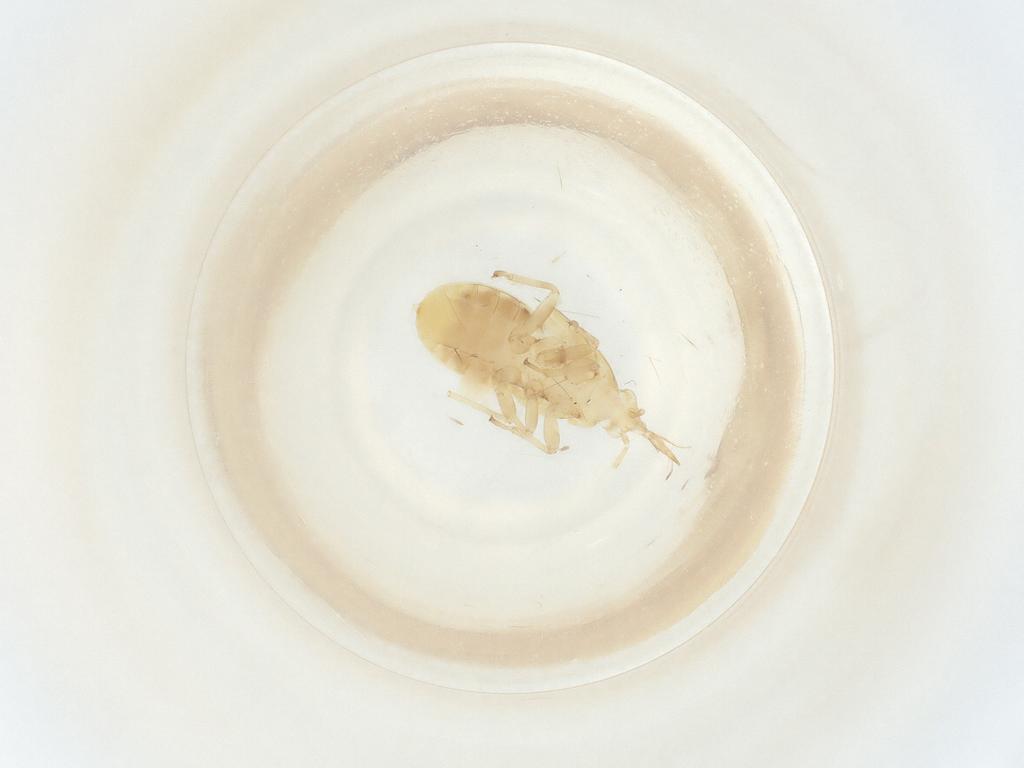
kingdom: Animalia
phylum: Arthropoda
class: Insecta
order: Hemiptera
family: Anthocoridae
